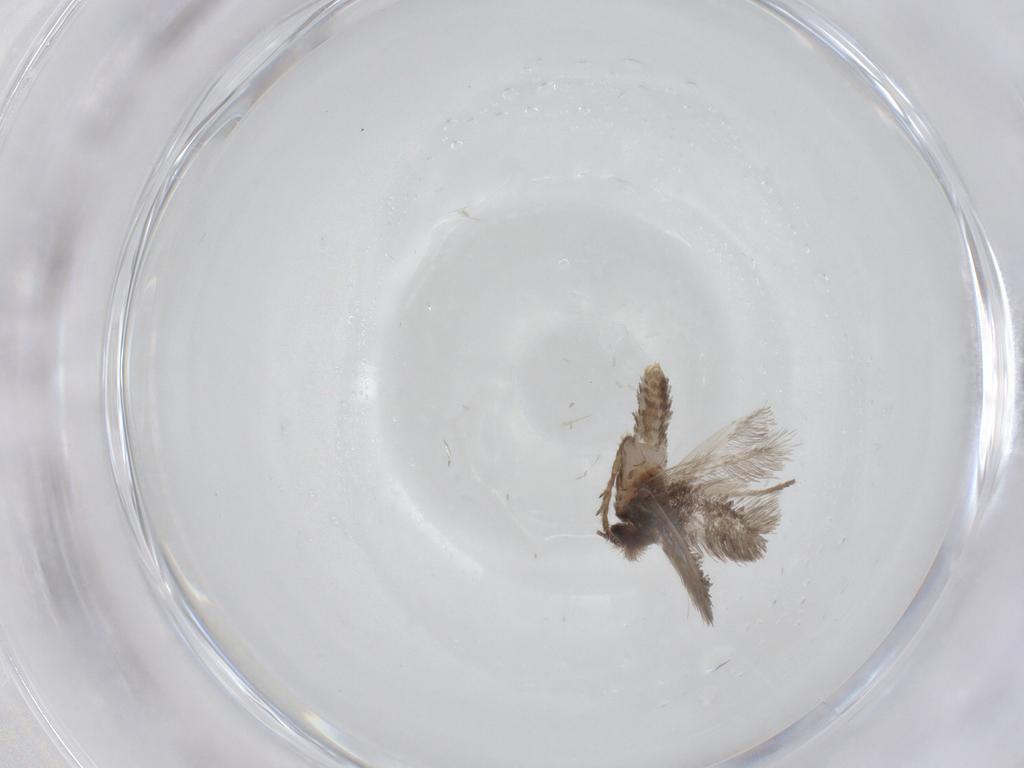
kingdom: Animalia
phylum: Arthropoda
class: Insecta
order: Lepidoptera
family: Nepticulidae
